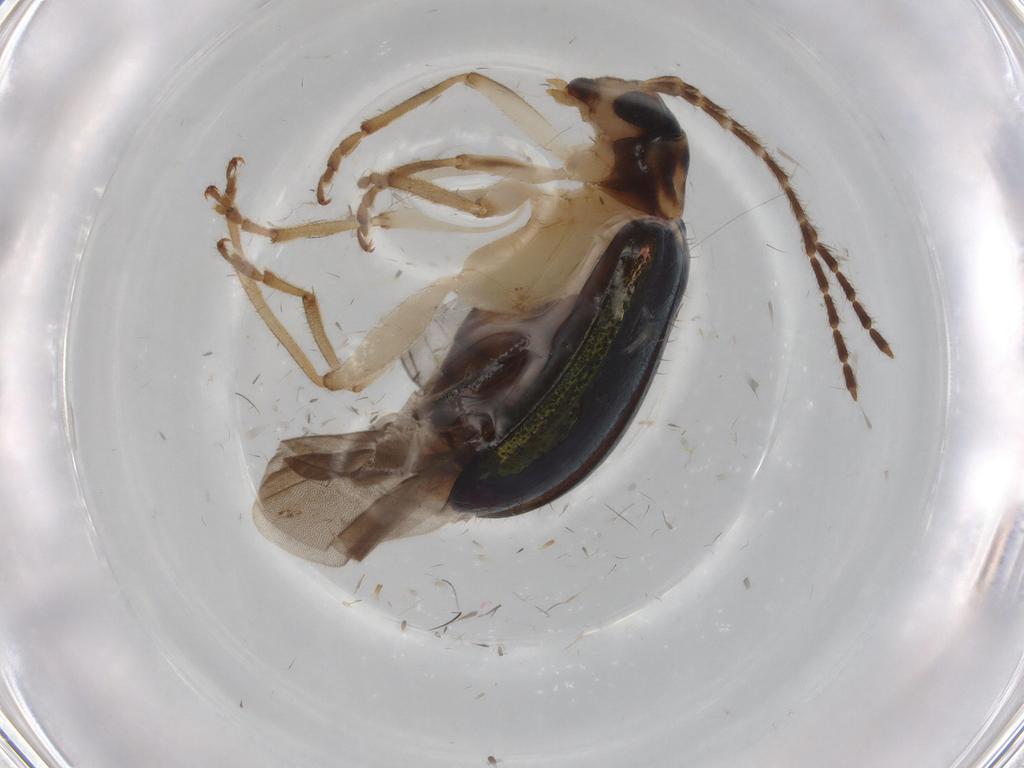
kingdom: Animalia
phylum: Arthropoda
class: Insecta
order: Coleoptera
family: Chrysomelidae
